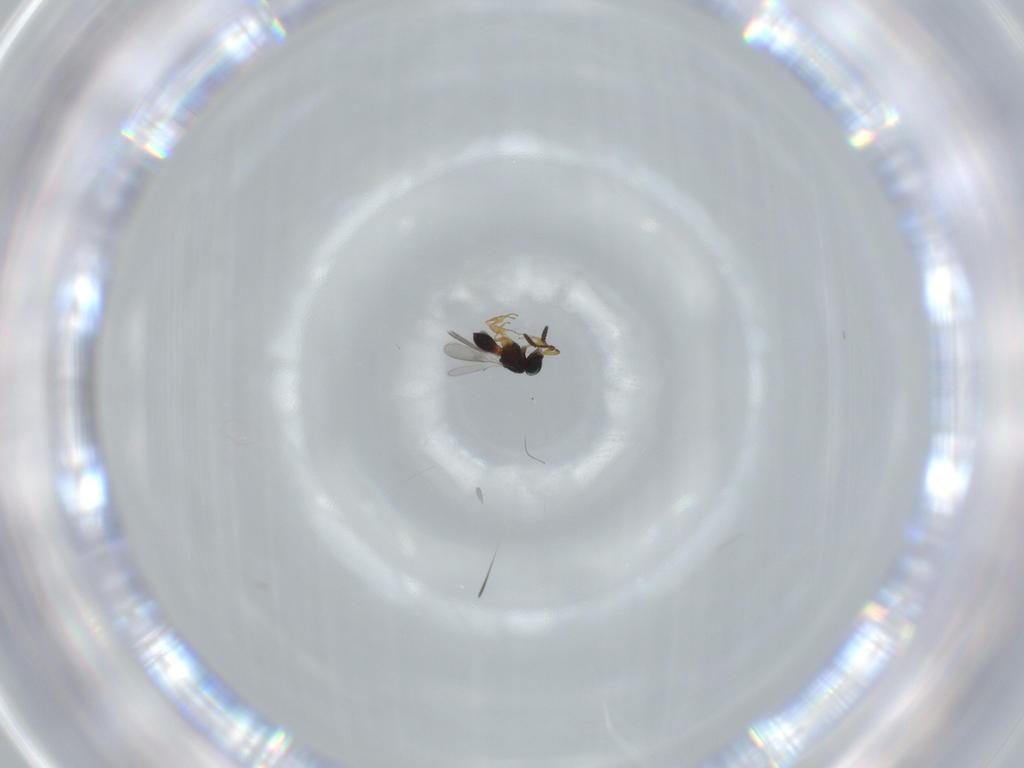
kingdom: Animalia
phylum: Arthropoda
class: Insecta
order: Hymenoptera
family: Scelionidae
